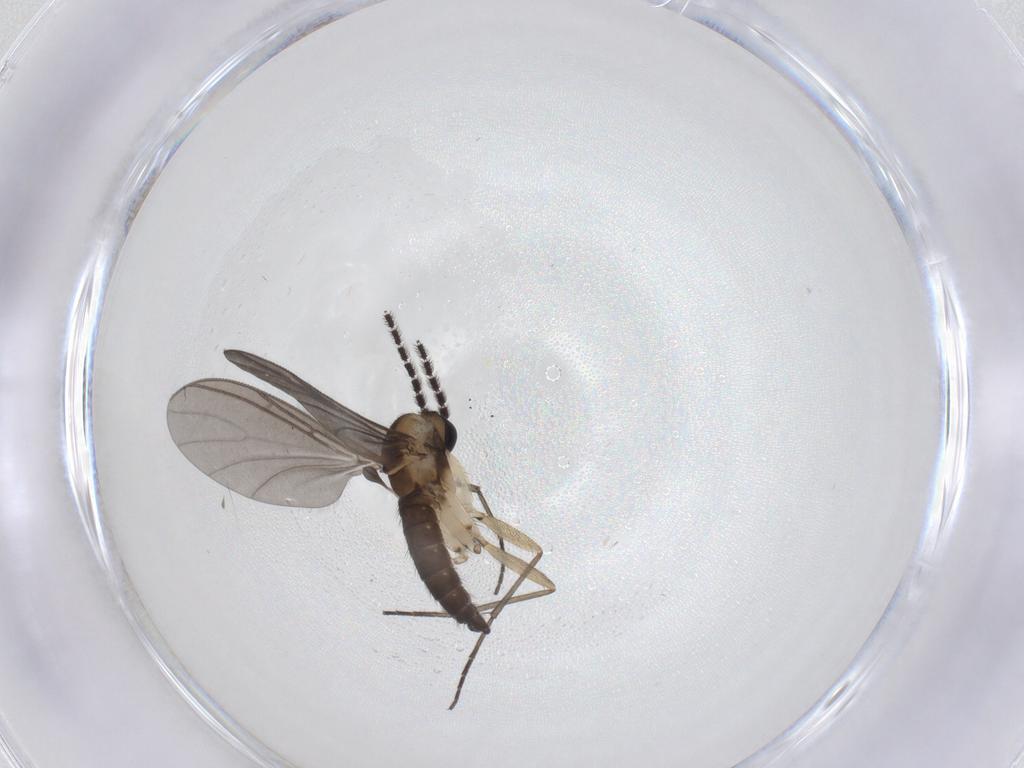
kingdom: Animalia
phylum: Arthropoda
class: Insecta
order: Diptera
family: Sciaridae
